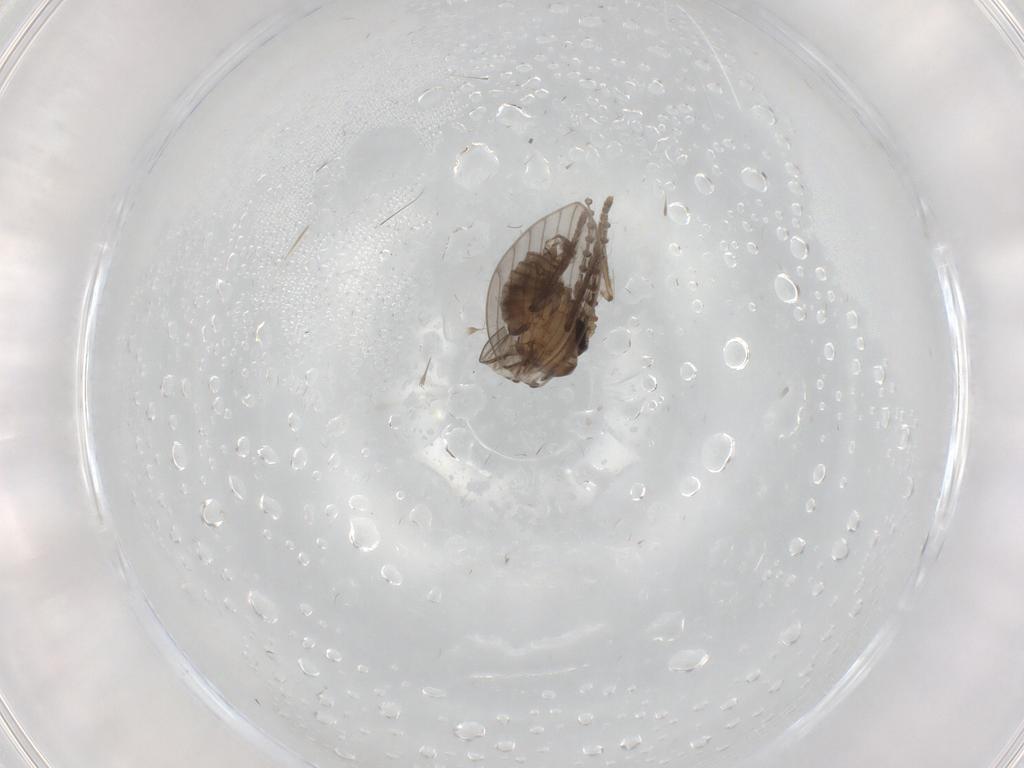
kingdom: Animalia
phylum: Arthropoda
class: Insecta
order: Diptera
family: Psychodidae
